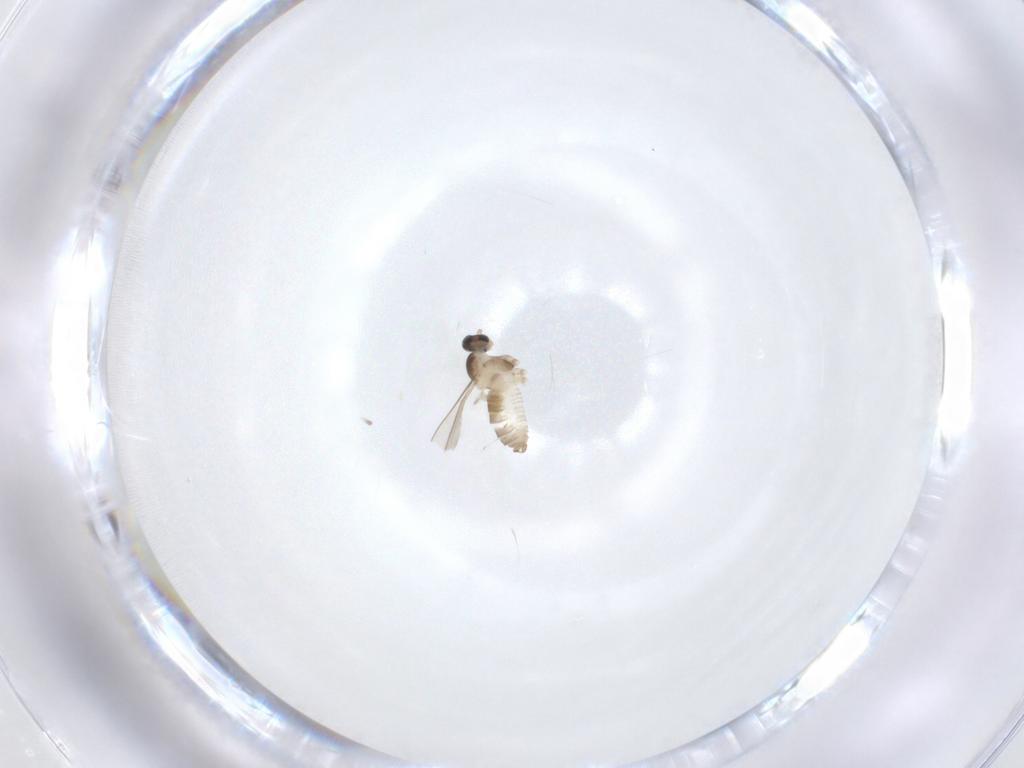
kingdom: Animalia
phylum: Arthropoda
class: Insecta
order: Diptera
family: Cecidomyiidae
